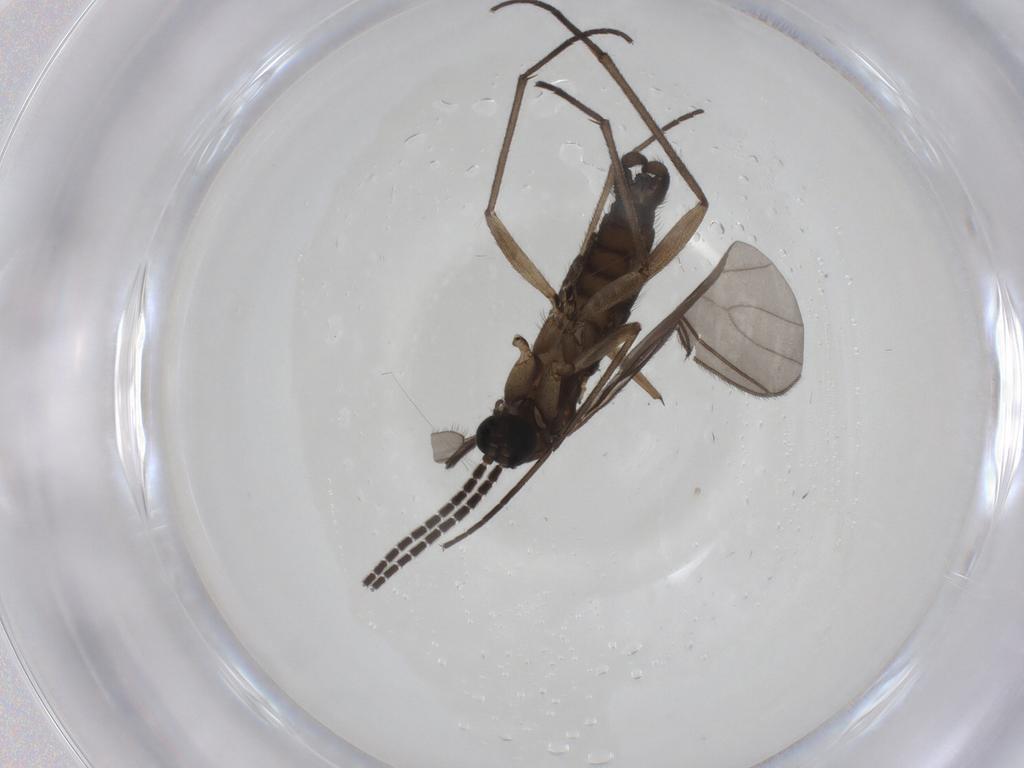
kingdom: Animalia
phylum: Arthropoda
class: Insecta
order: Diptera
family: Sciaridae
